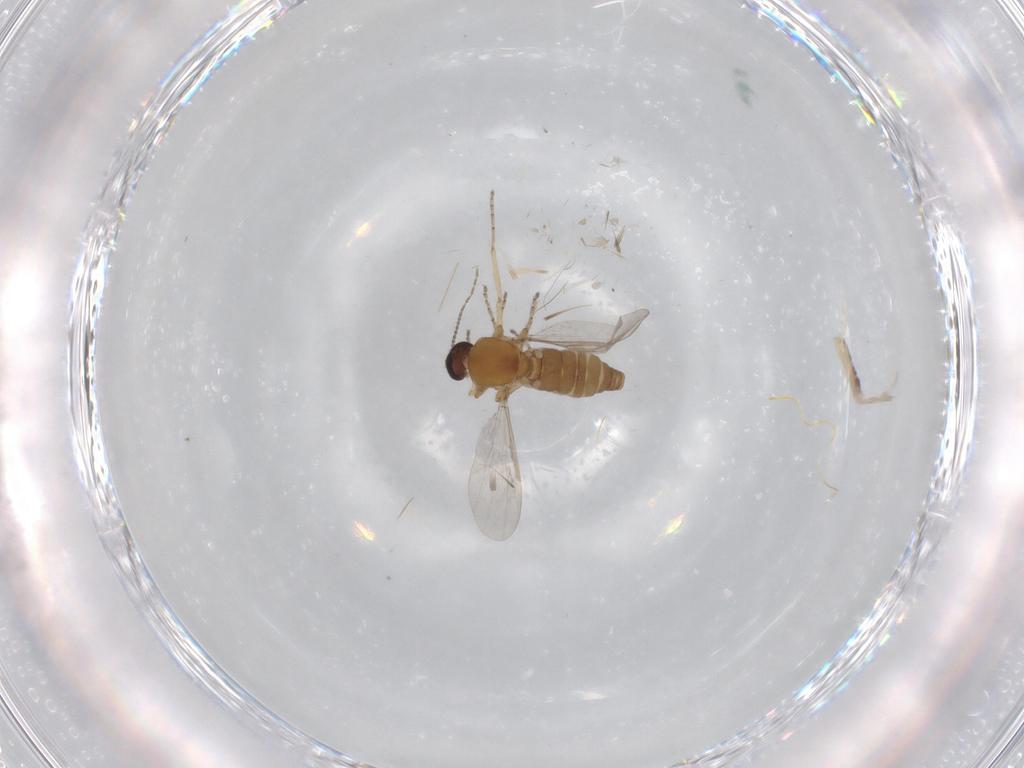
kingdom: Animalia
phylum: Arthropoda
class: Insecta
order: Diptera
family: Ceratopogonidae
